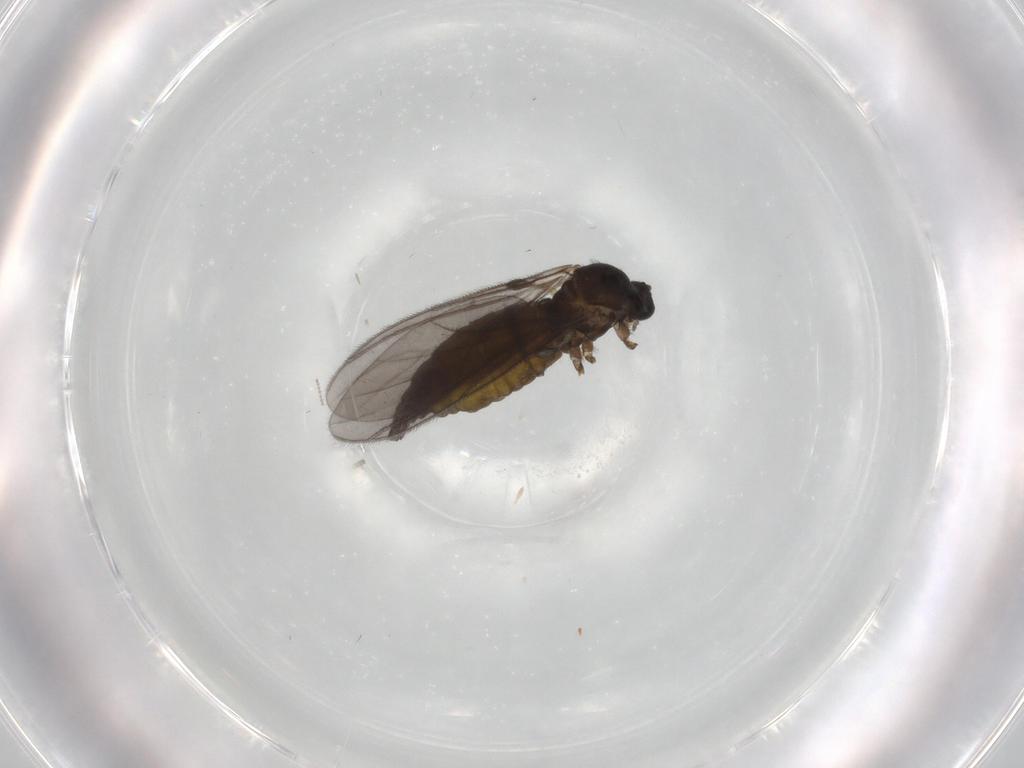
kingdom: Animalia
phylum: Arthropoda
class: Insecta
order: Diptera
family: Sciaridae
